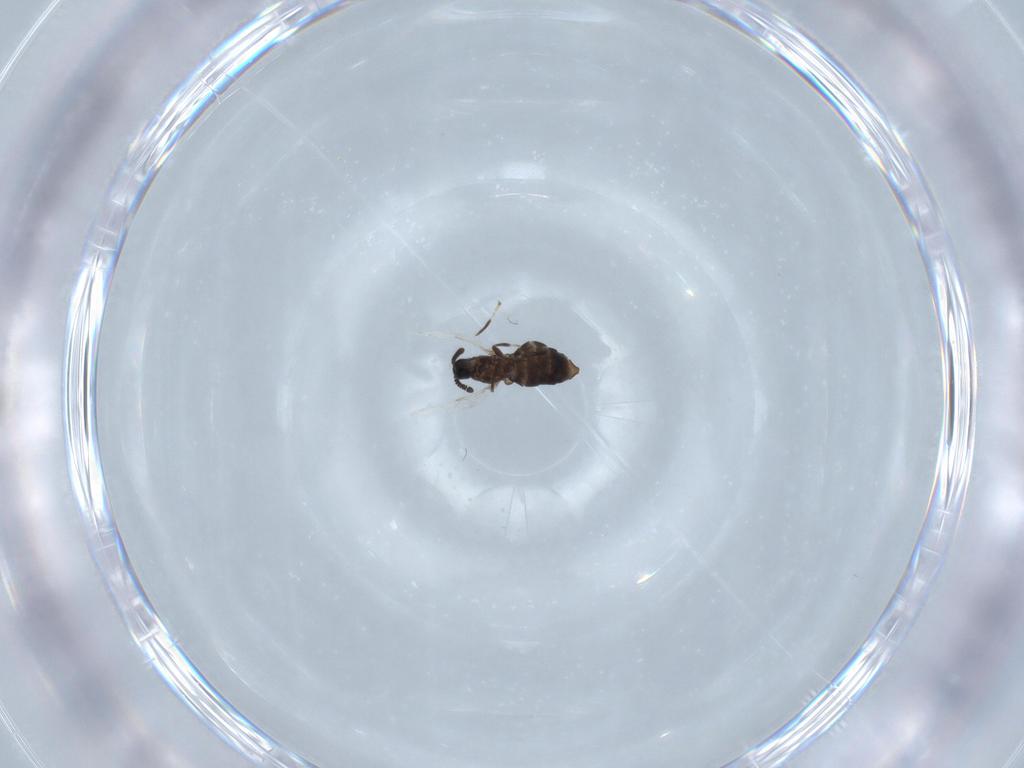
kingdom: Animalia
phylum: Arthropoda
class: Insecta
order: Diptera
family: Scatopsidae
